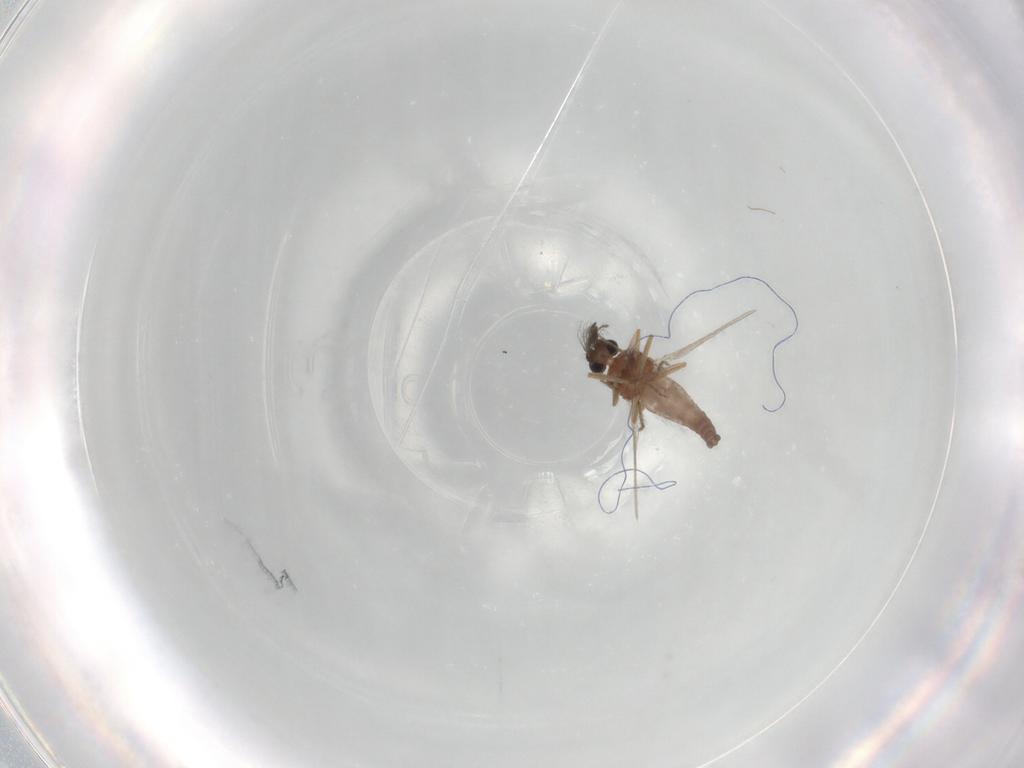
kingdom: Animalia
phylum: Arthropoda
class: Insecta
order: Diptera
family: Ceratopogonidae
